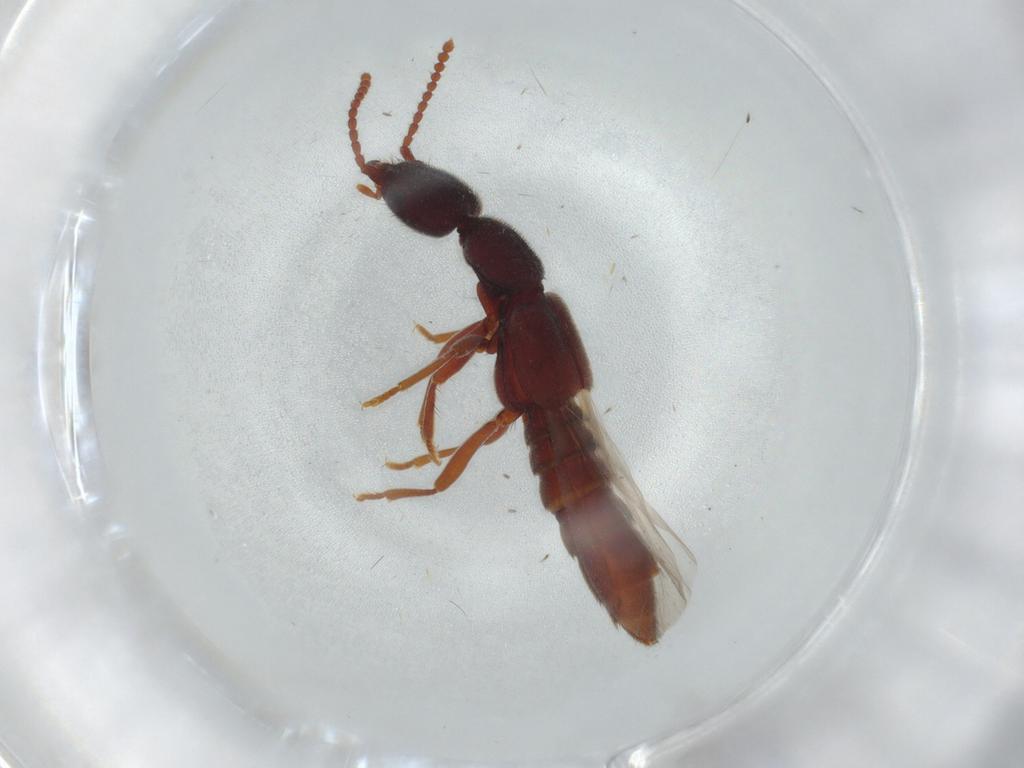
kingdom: Animalia
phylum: Arthropoda
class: Insecta
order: Coleoptera
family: Staphylinidae
